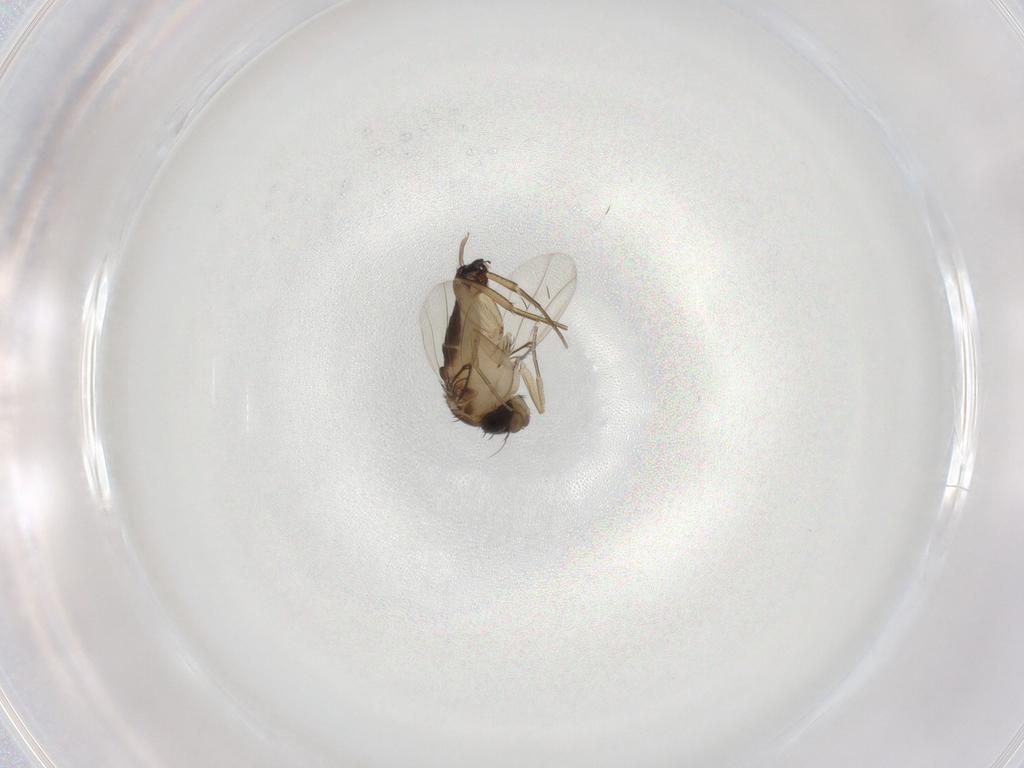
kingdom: Animalia
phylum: Arthropoda
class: Insecta
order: Diptera
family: Phoridae
